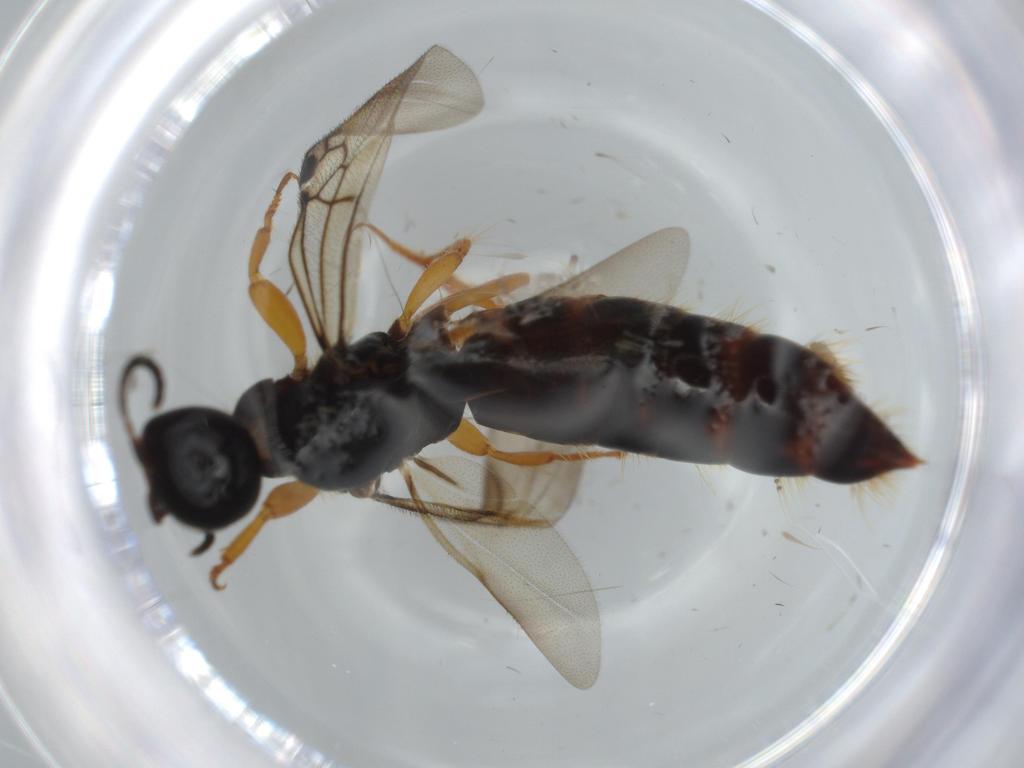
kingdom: Animalia
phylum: Arthropoda
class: Insecta
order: Hymenoptera
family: Scolebythidae
